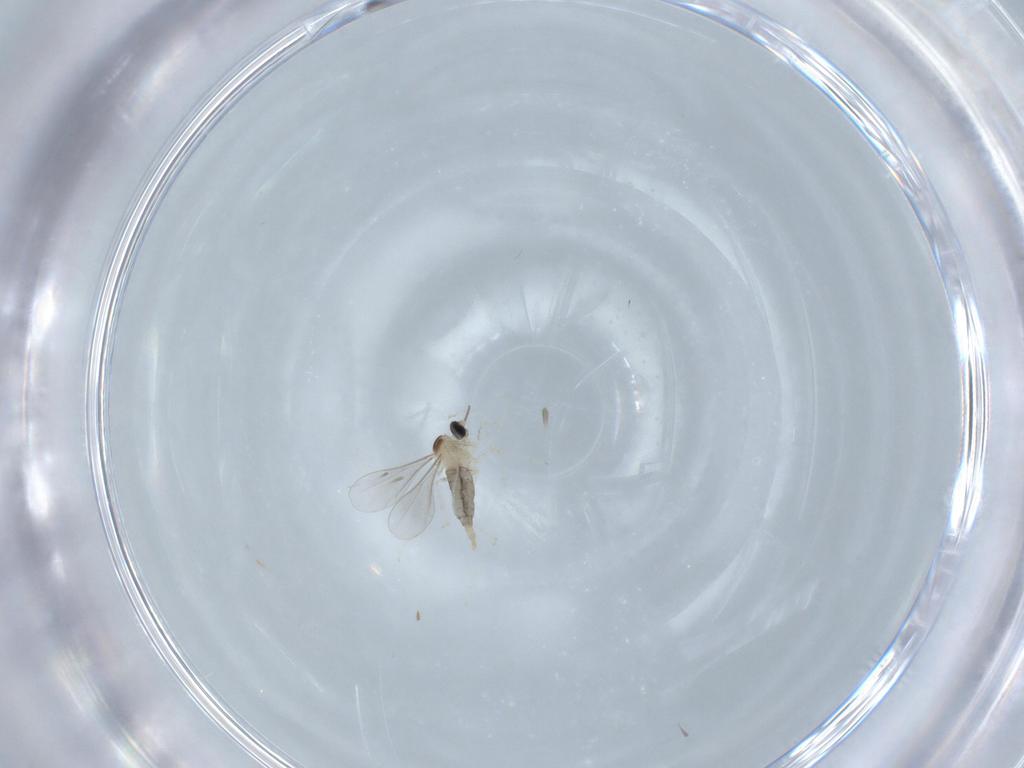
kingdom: Animalia
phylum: Arthropoda
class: Insecta
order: Diptera
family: Cecidomyiidae
